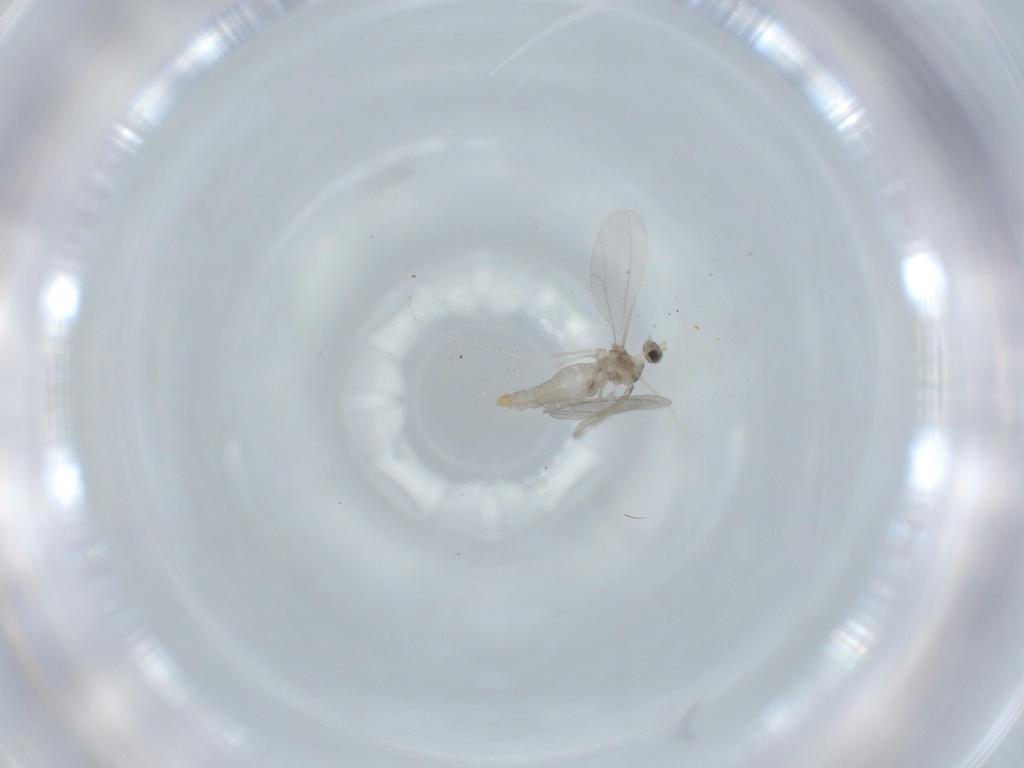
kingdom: Animalia
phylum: Arthropoda
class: Insecta
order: Diptera
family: Cecidomyiidae
